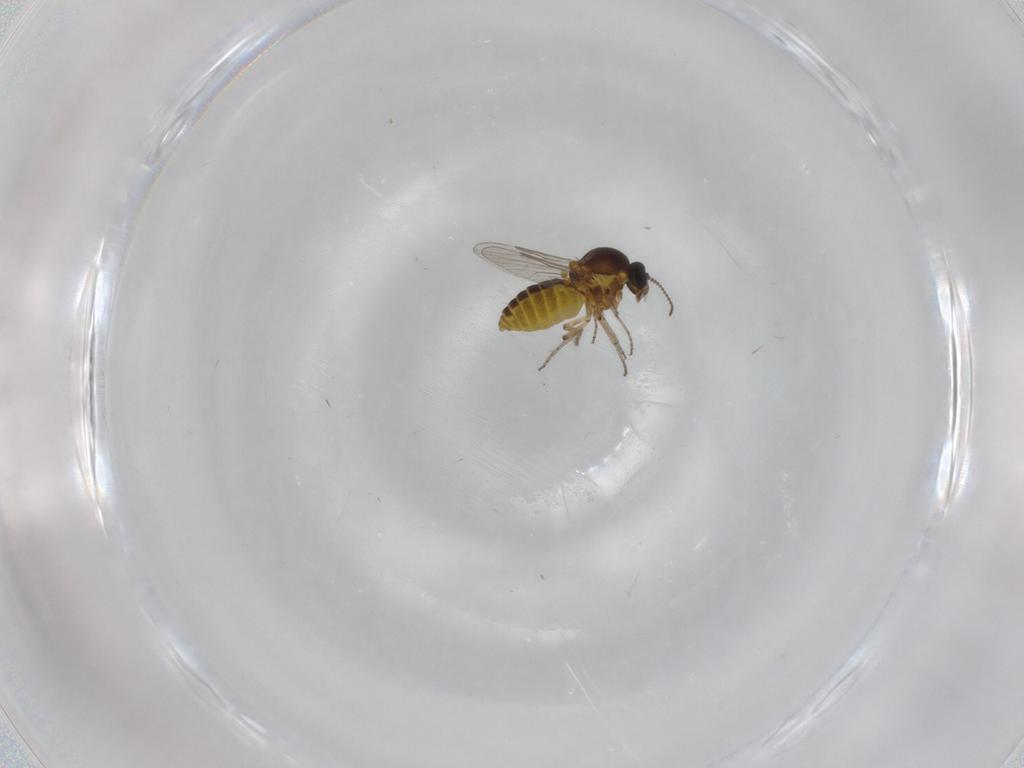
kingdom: Animalia
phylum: Arthropoda
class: Insecta
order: Diptera
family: Ceratopogonidae
